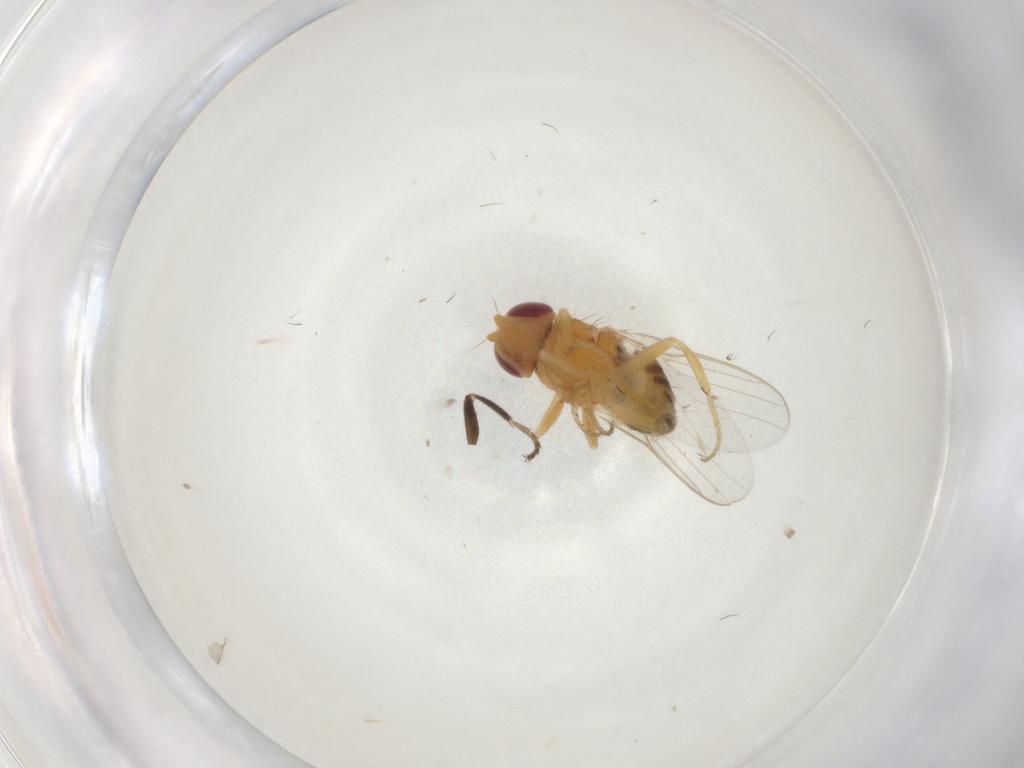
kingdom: Animalia
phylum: Arthropoda
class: Insecta
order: Diptera
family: Chloropidae
